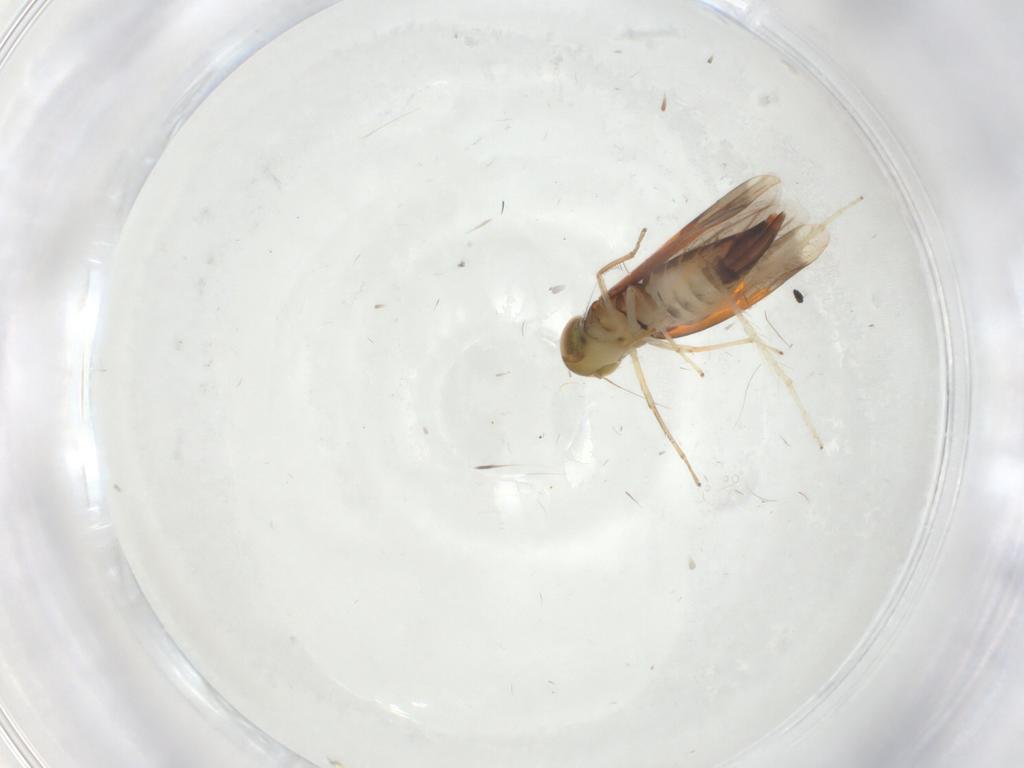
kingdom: Animalia
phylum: Arthropoda
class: Insecta
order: Hemiptera
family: Cicadellidae
